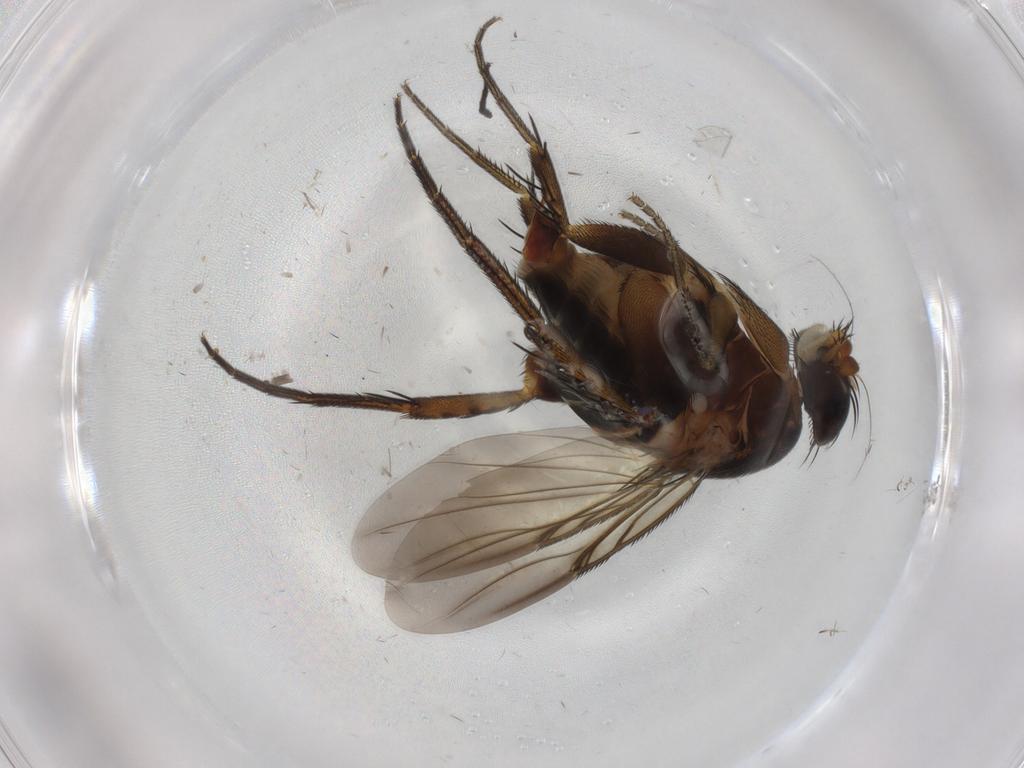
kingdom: Animalia
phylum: Arthropoda
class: Insecta
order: Diptera
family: Phoridae
